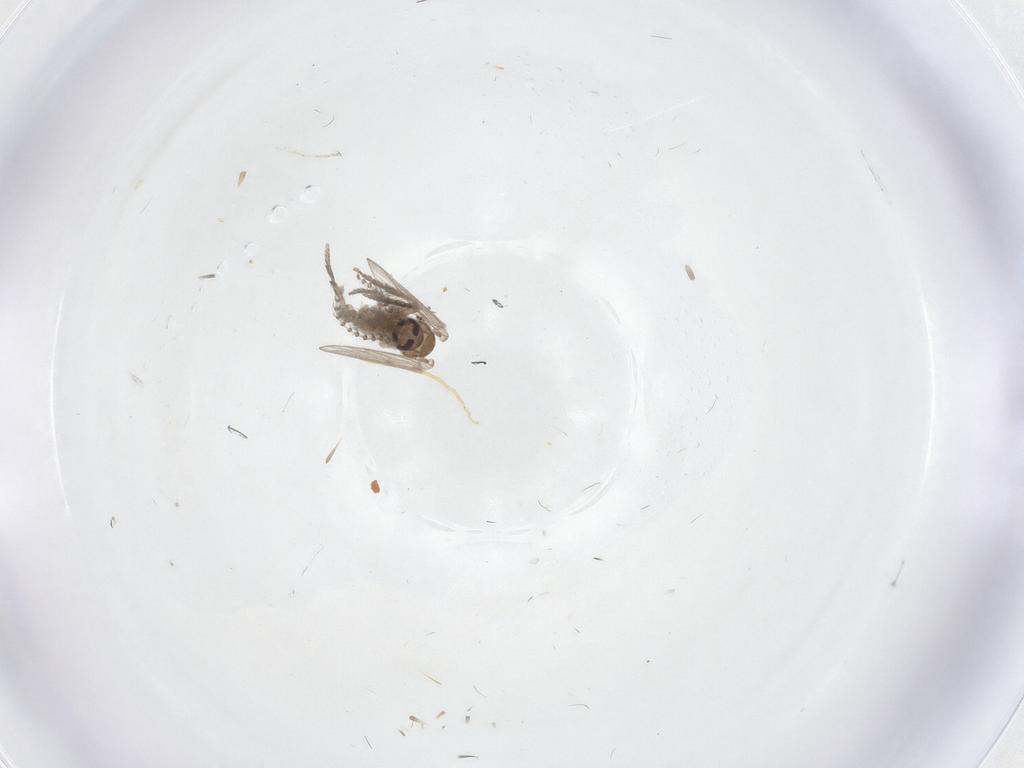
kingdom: Animalia
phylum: Arthropoda
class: Insecta
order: Diptera
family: Psychodidae
